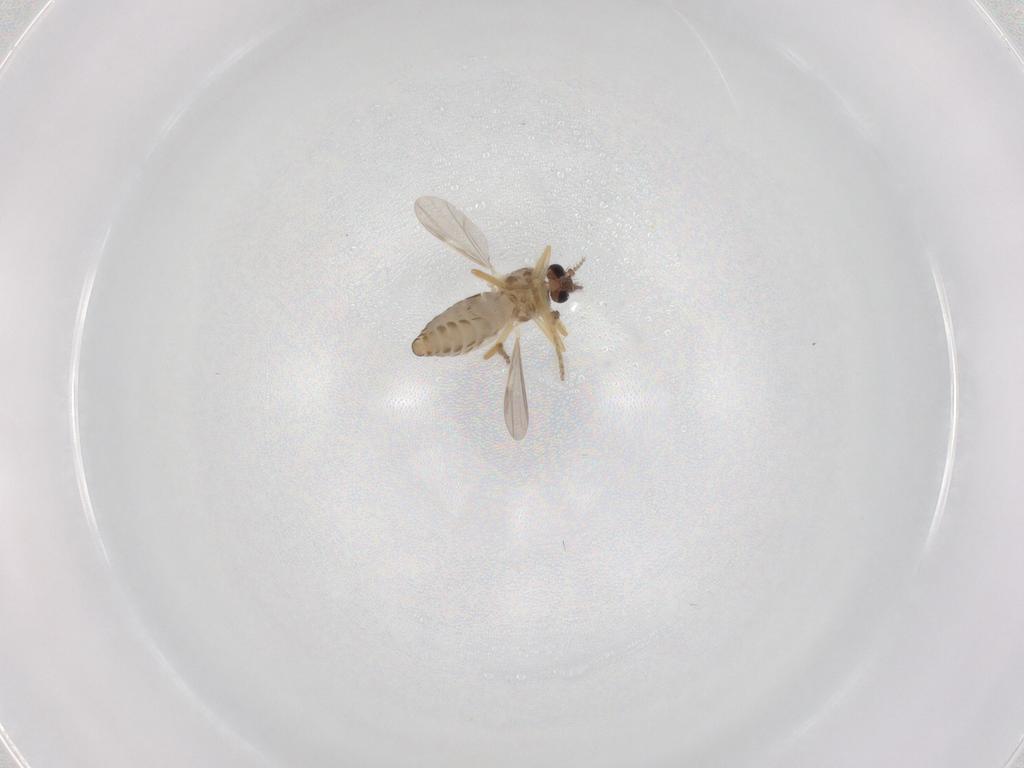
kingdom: Animalia
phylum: Arthropoda
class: Insecta
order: Diptera
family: Ceratopogonidae
